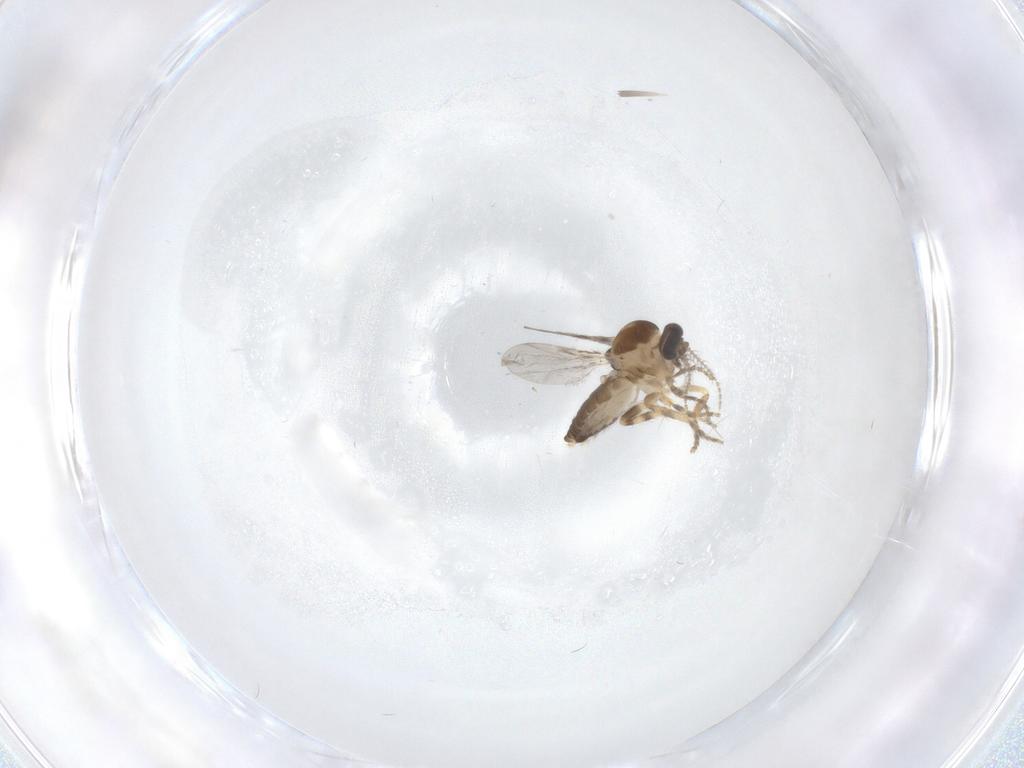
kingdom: Animalia
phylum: Arthropoda
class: Insecta
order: Diptera
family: Ceratopogonidae
